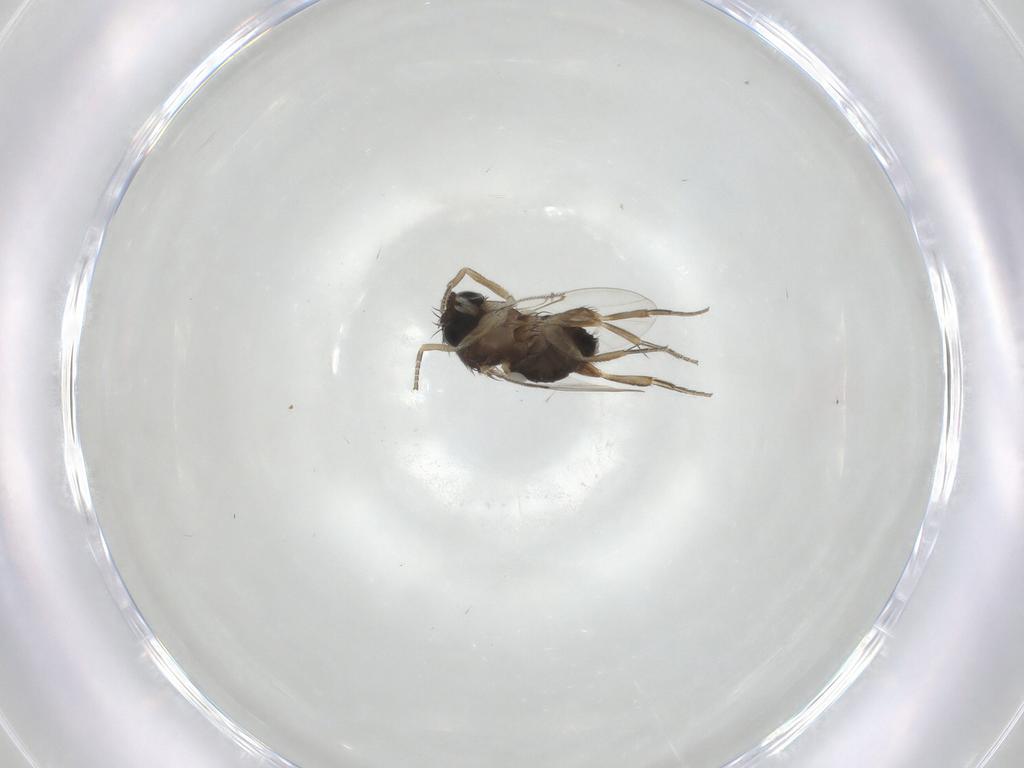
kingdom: Animalia
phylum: Arthropoda
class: Insecta
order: Diptera
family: Phoridae
